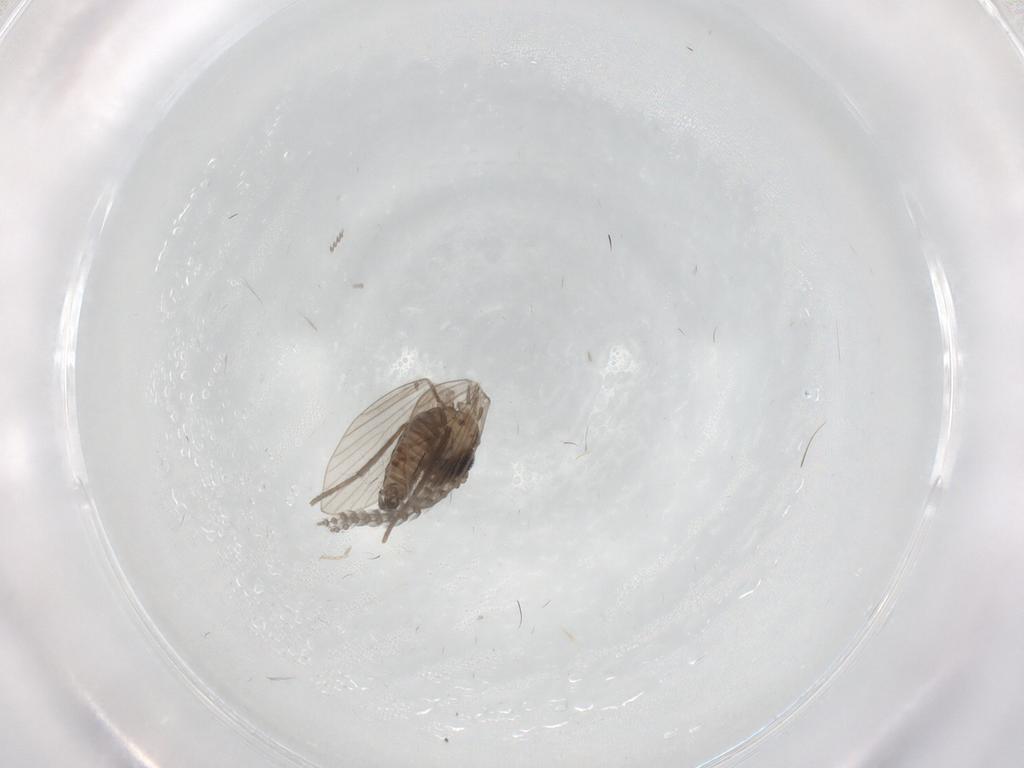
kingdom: Animalia
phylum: Arthropoda
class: Insecta
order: Diptera
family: Psychodidae
